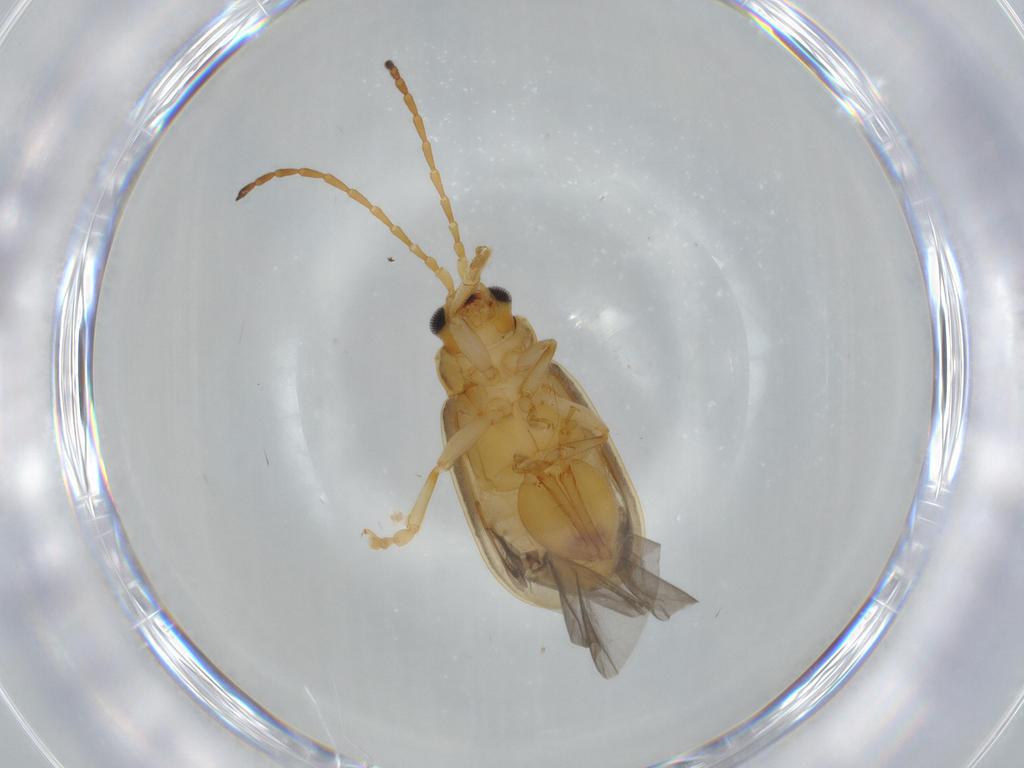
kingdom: Animalia
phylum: Arthropoda
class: Insecta
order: Coleoptera
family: Chrysomelidae
